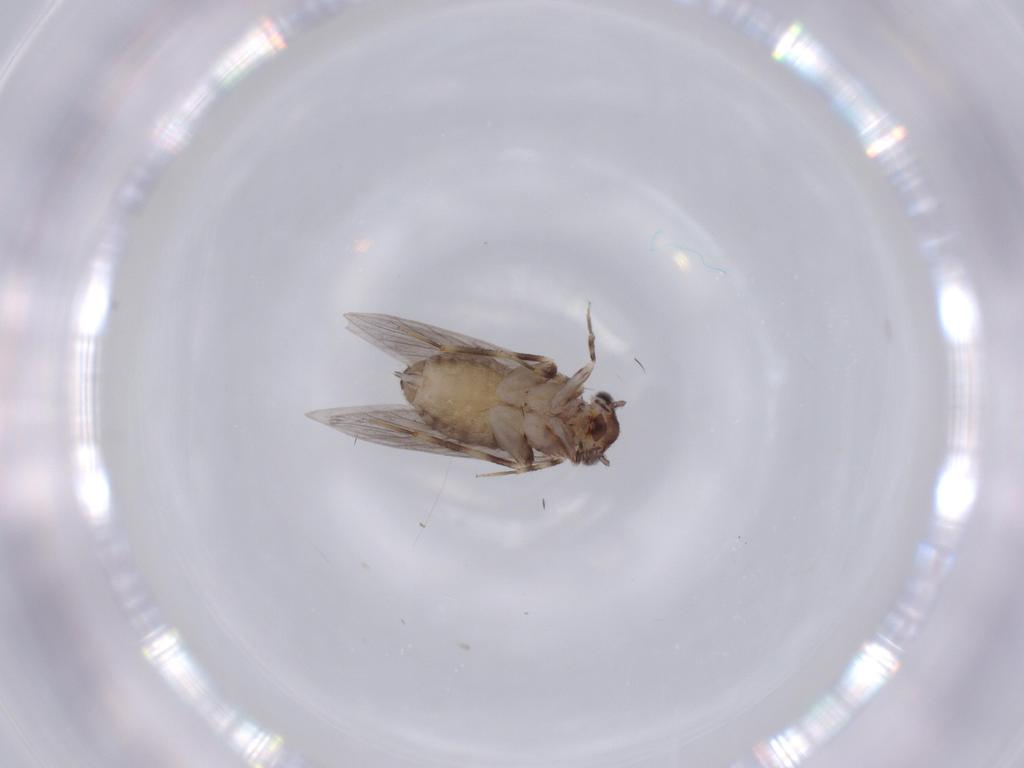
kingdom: Animalia
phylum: Arthropoda
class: Insecta
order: Psocodea
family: Lepidopsocidae
